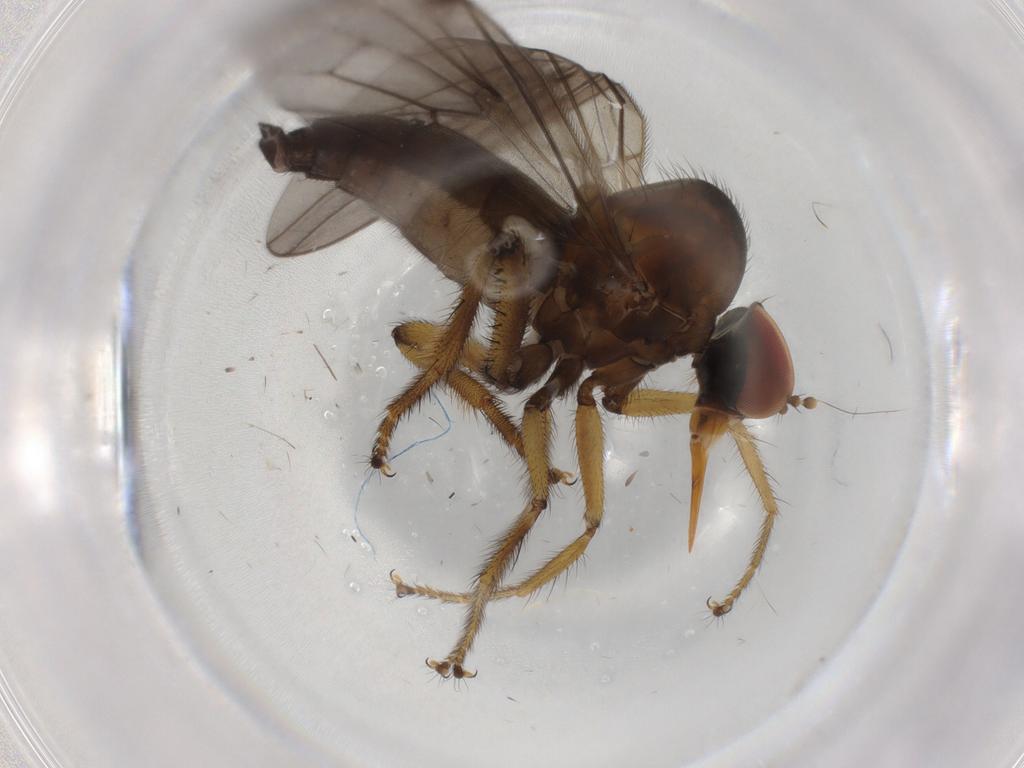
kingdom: Animalia
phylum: Arthropoda
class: Insecta
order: Diptera
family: Hybotidae
